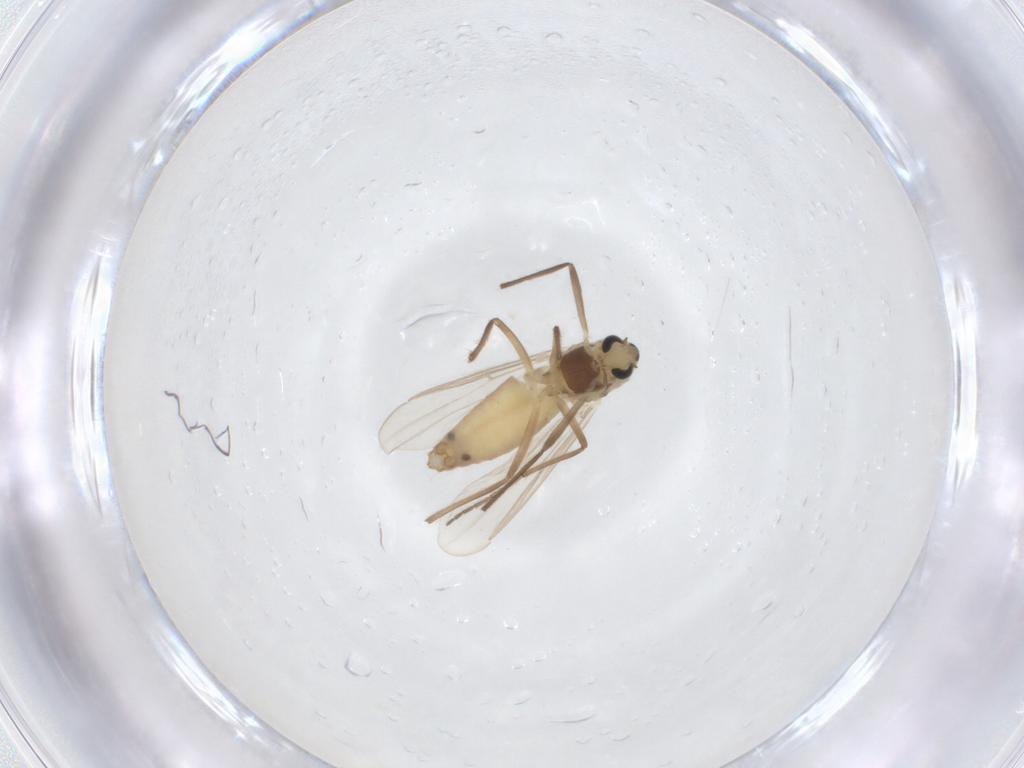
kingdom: Animalia
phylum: Arthropoda
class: Insecta
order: Diptera
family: Chironomidae
